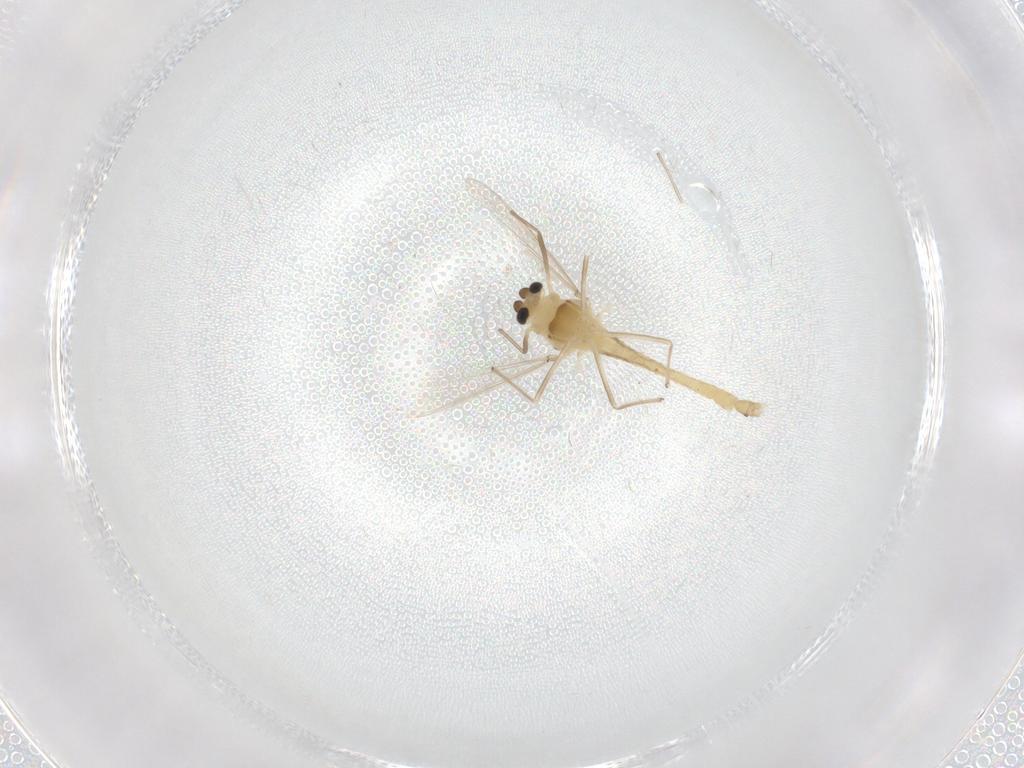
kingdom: Animalia
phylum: Arthropoda
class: Insecta
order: Diptera
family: Chironomidae
